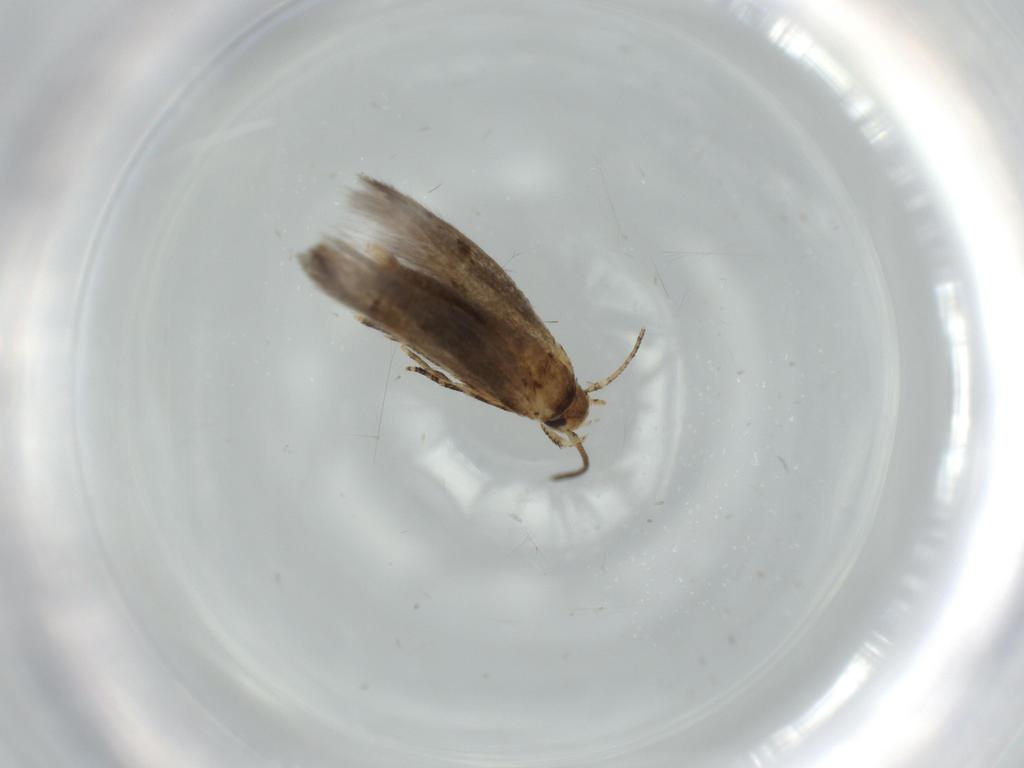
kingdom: Animalia
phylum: Arthropoda
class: Insecta
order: Lepidoptera
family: Momphidae
